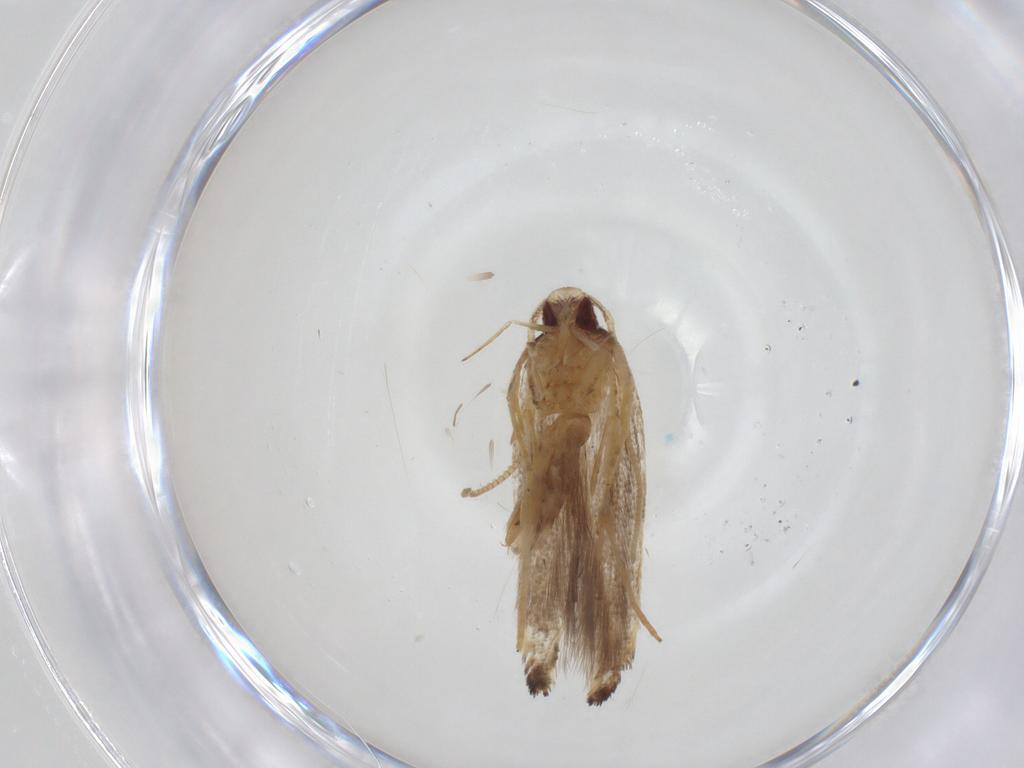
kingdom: Animalia
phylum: Arthropoda
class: Insecta
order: Lepidoptera
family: Cosmopterigidae
